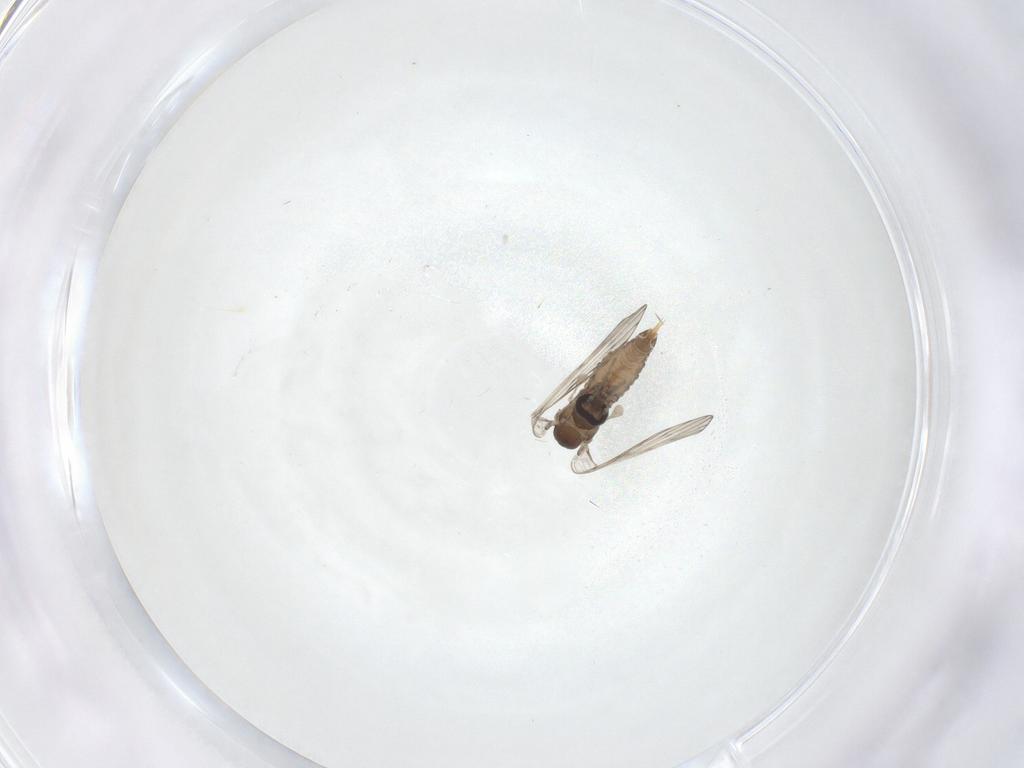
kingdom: Animalia
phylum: Arthropoda
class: Insecta
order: Diptera
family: Psychodidae
